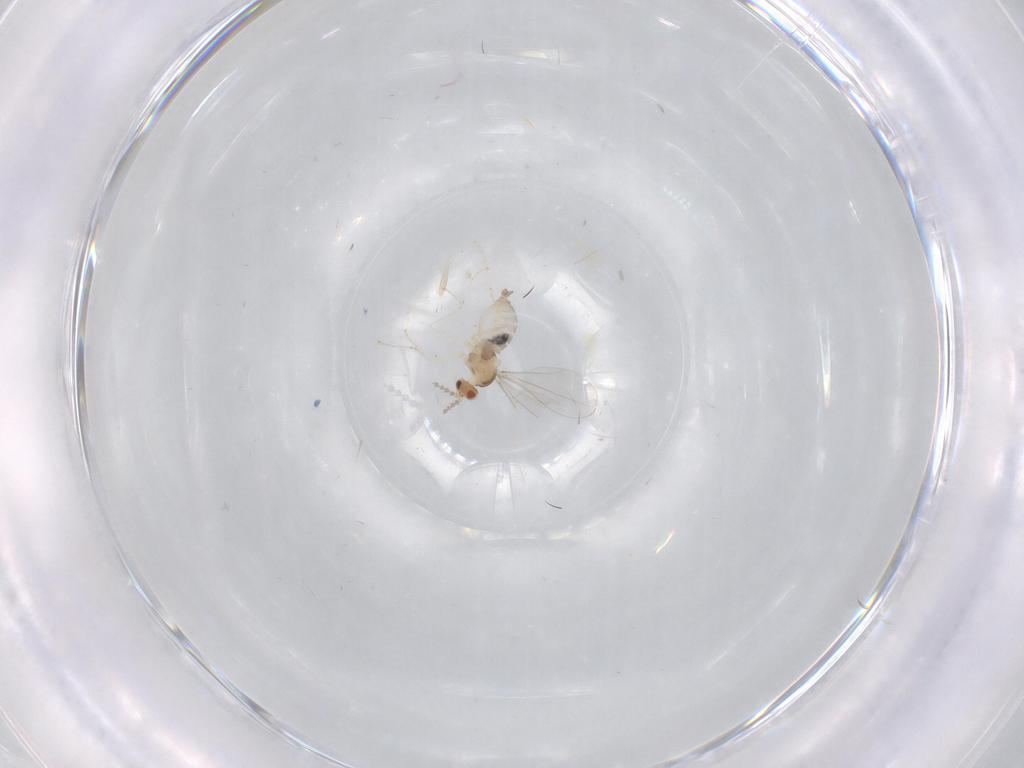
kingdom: Animalia
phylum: Arthropoda
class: Insecta
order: Diptera
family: Cecidomyiidae
